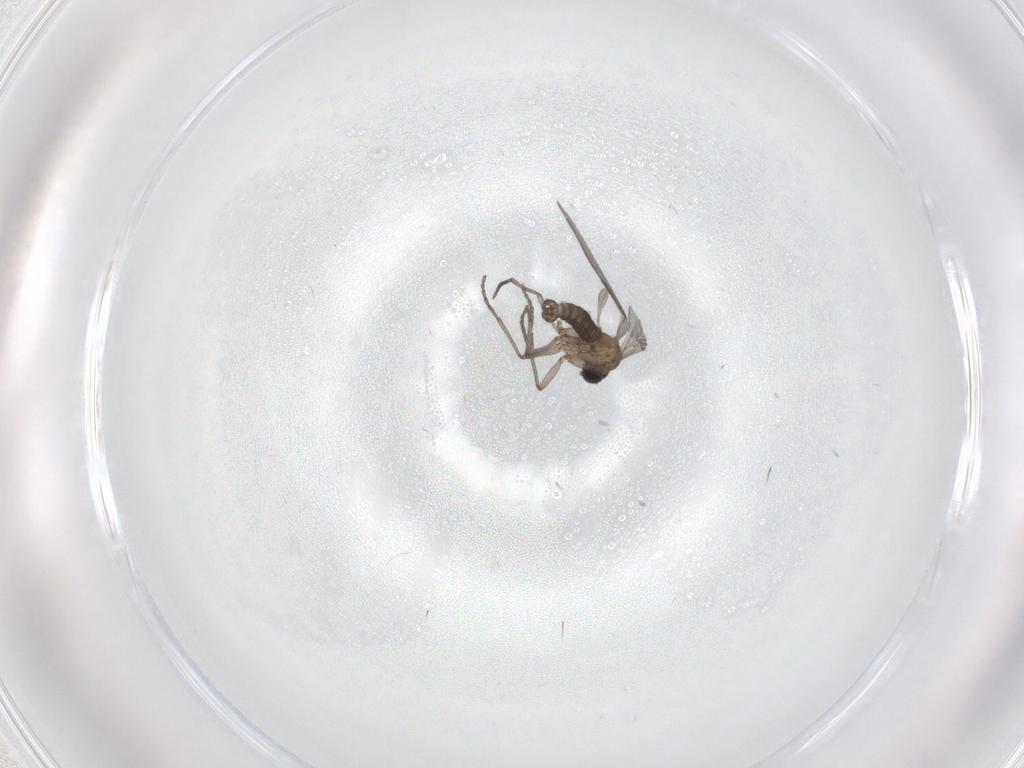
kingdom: Animalia
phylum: Arthropoda
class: Insecta
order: Diptera
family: Sciaridae
